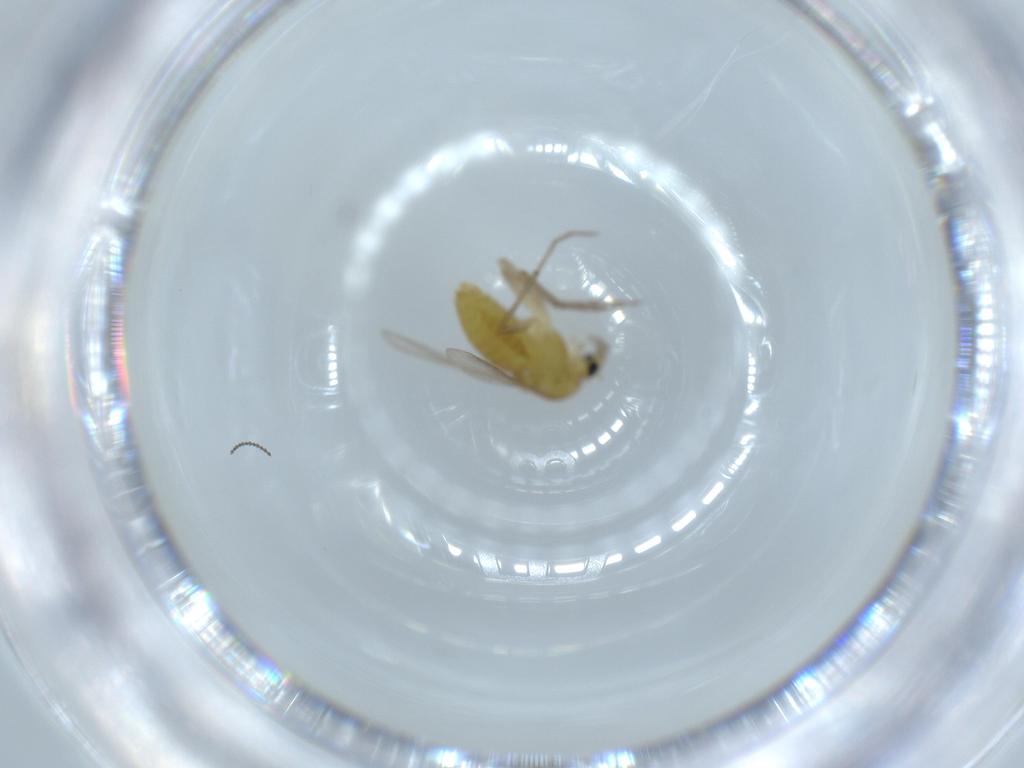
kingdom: Animalia
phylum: Arthropoda
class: Insecta
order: Diptera
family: Chironomidae
